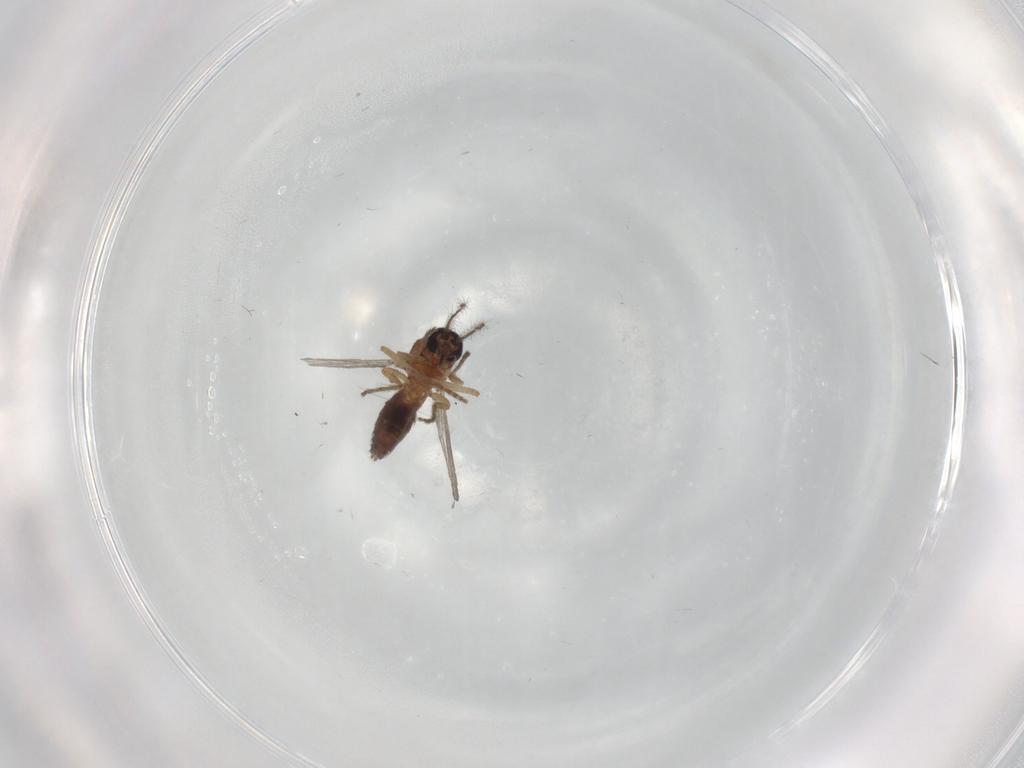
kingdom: Animalia
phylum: Arthropoda
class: Insecta
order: Diptera
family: Ceratopogonidae
